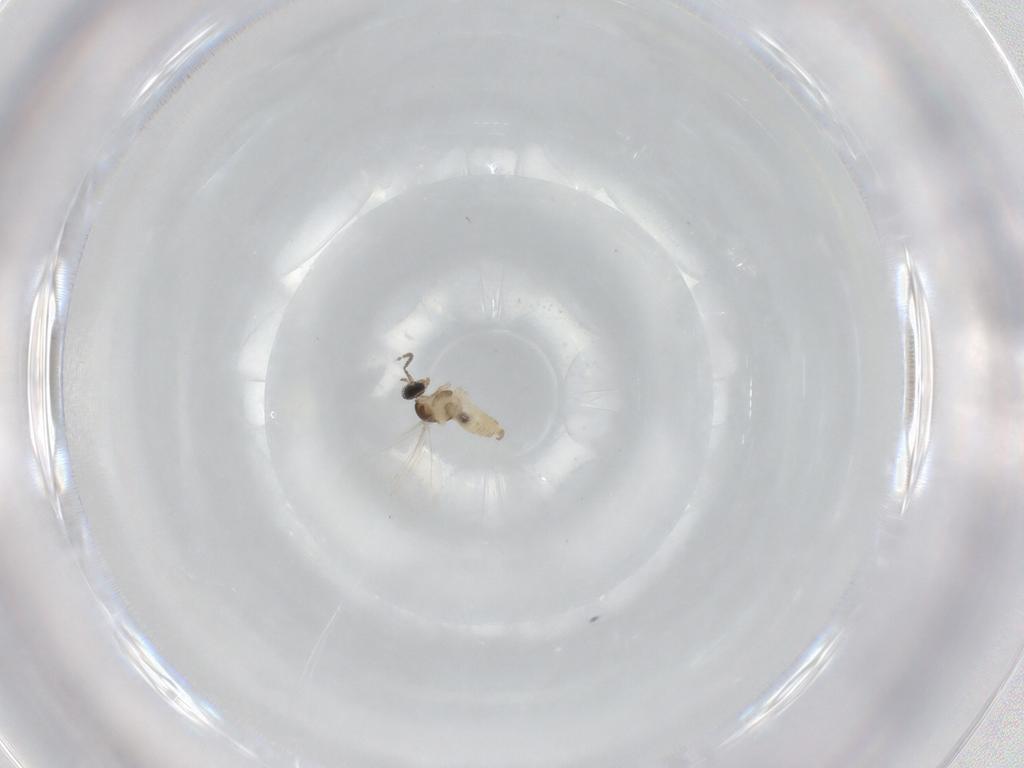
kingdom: Animalia
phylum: Arthropoda
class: Insecta
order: Diptera
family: Cecidomyiidae
